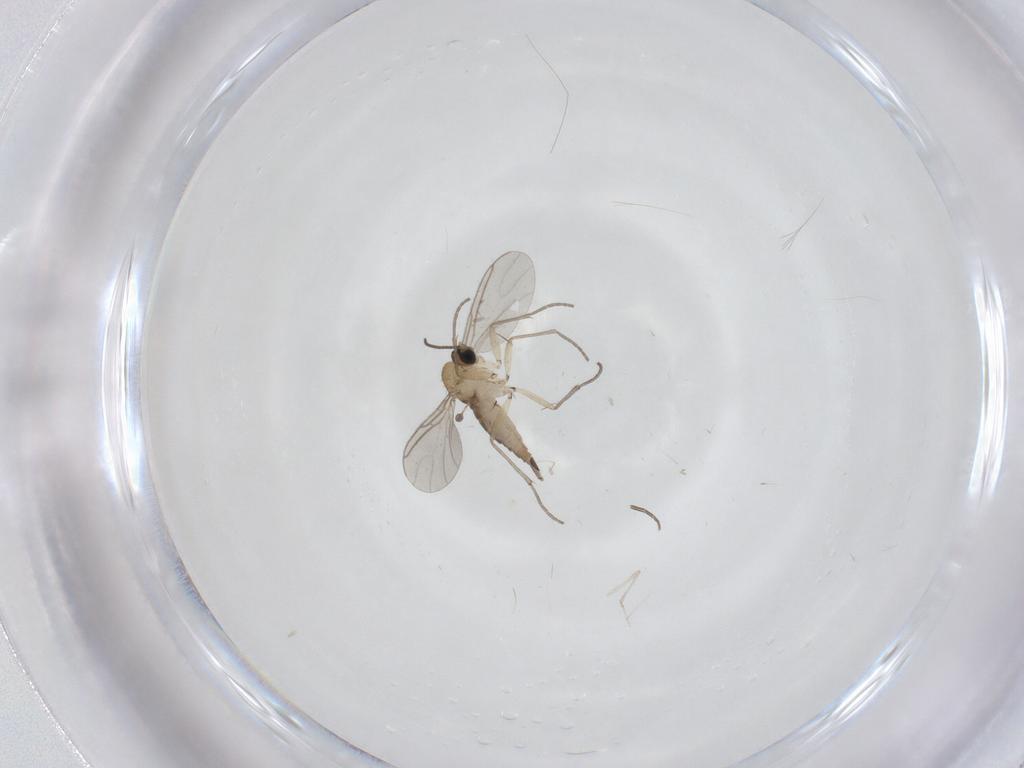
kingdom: Animalia
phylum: Arthropoda
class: Insecta
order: Diptera
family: Sciaridae
